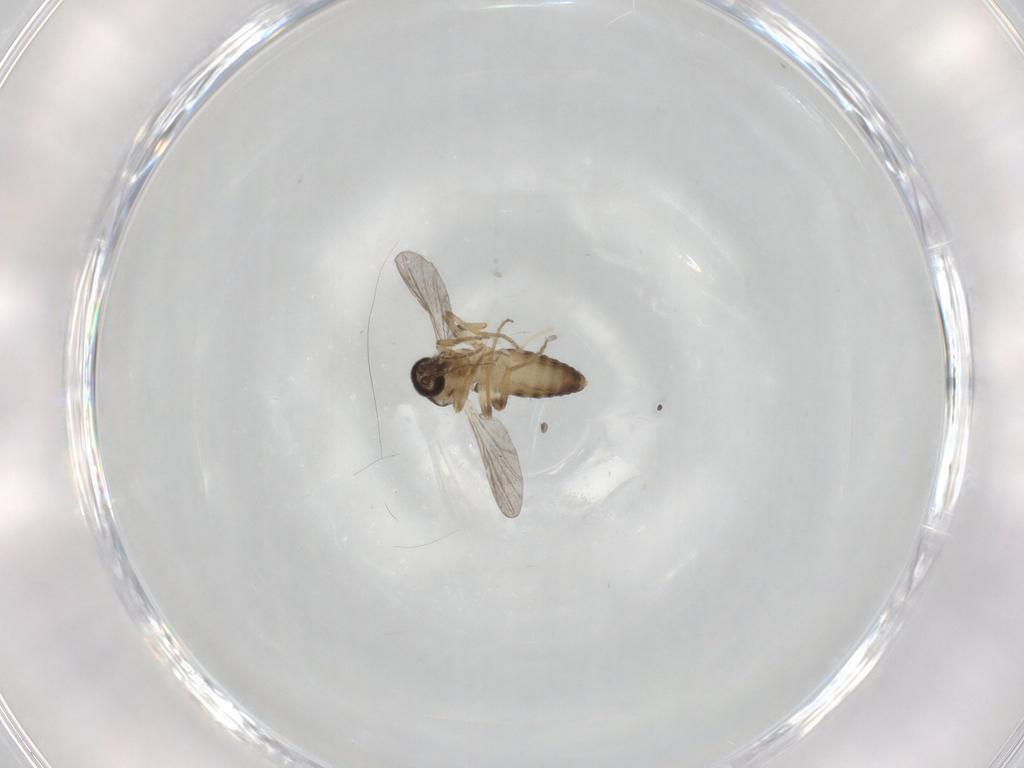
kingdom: Animalia
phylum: Arthropoda
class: Insecta
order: Diptera
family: Ceratopogonidae
